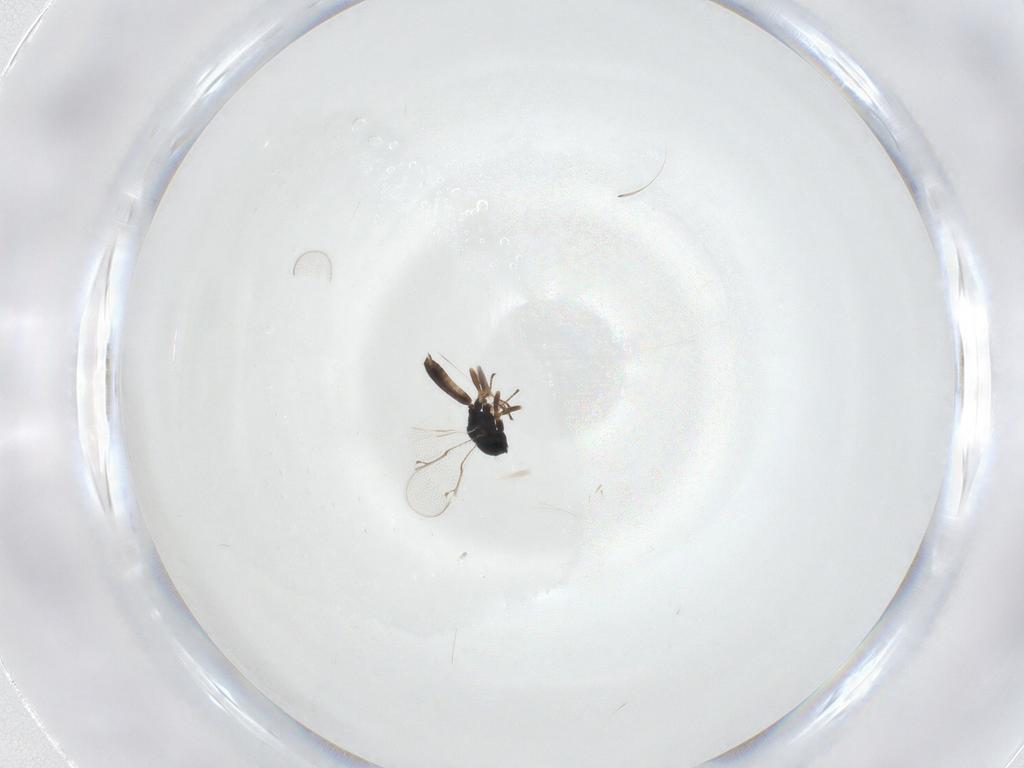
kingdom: Animalia
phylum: Arthropoda
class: Insecta
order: Hymenoptera
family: Pteromalidae
